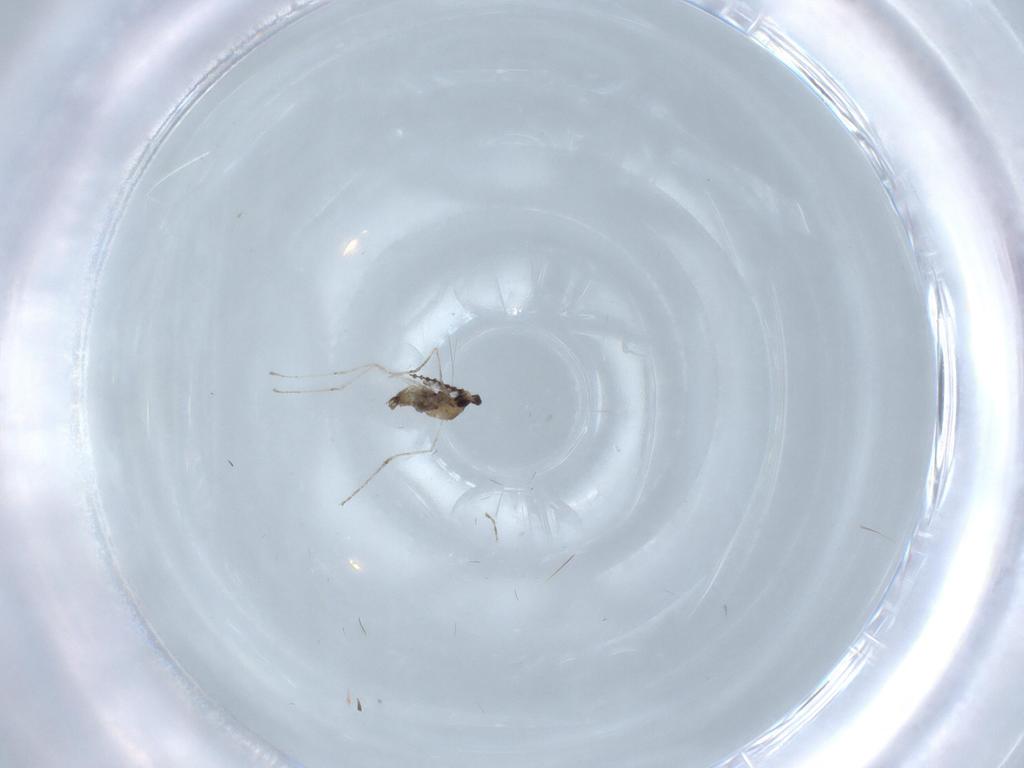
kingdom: Animalia
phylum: Arthropoda
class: Insecta
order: Diptera
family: Cecidomyiidae
